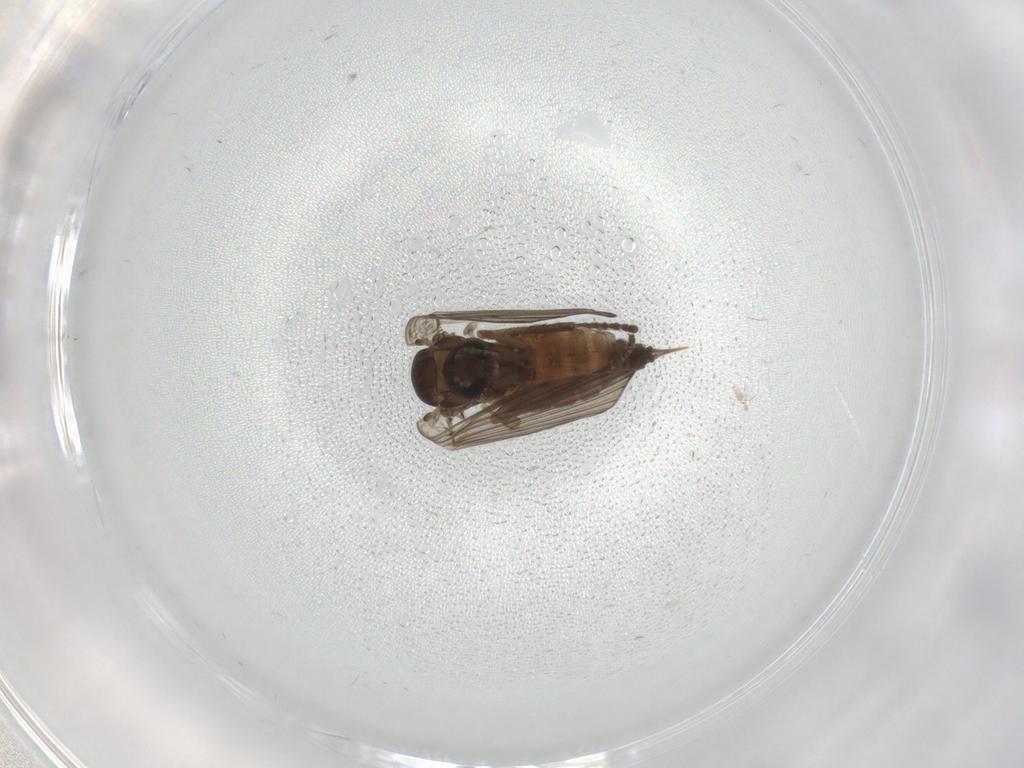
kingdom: Animalia
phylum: Arthropoda
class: Insecta
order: Diptera
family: Psychodidae
